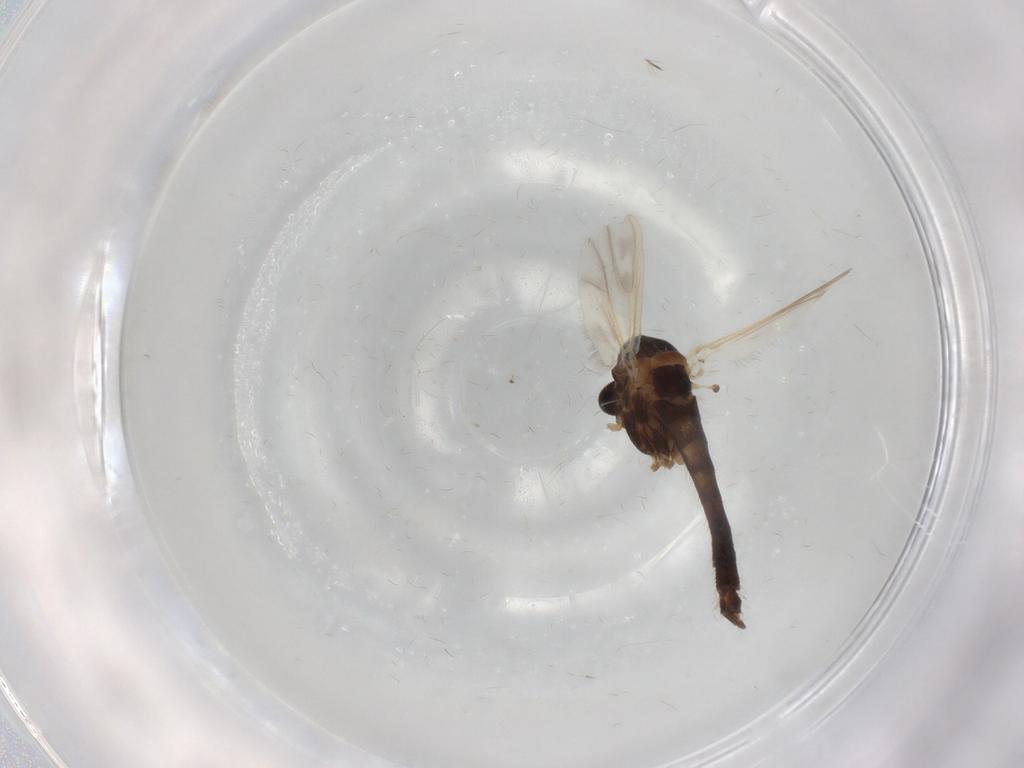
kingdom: Animalia
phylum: Arthropoda
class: Insecta
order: Diptera
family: Chironomidae
